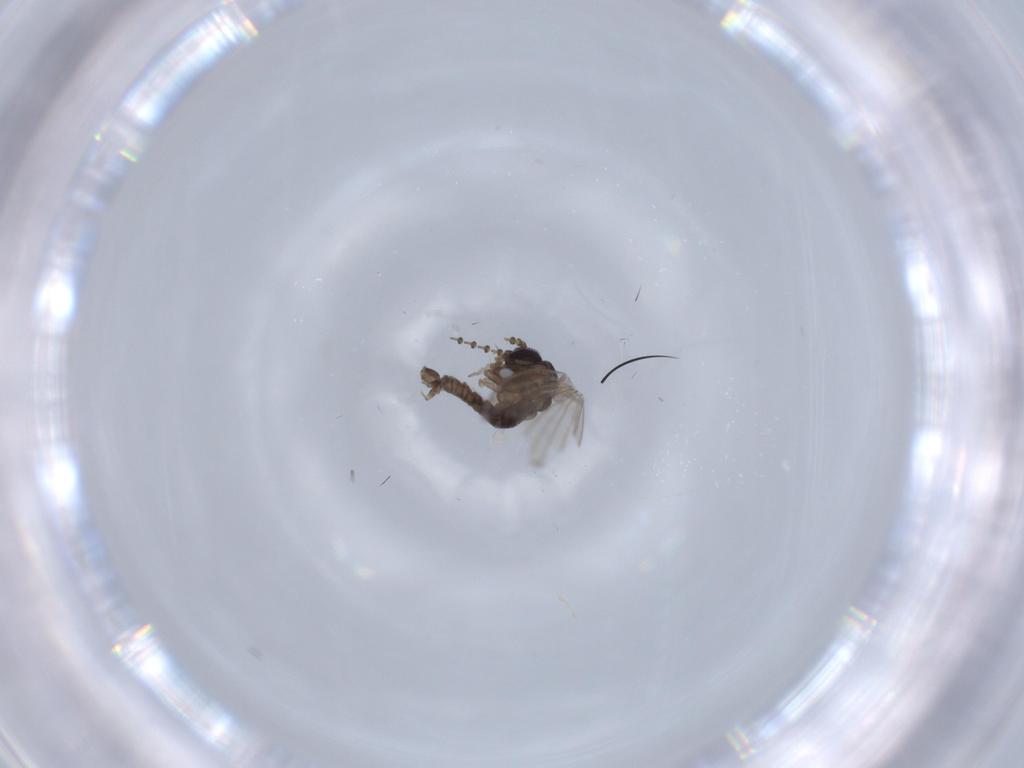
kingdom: Animalia
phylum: Arthropoda
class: Insecta
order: Diptera
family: Psychodidae
